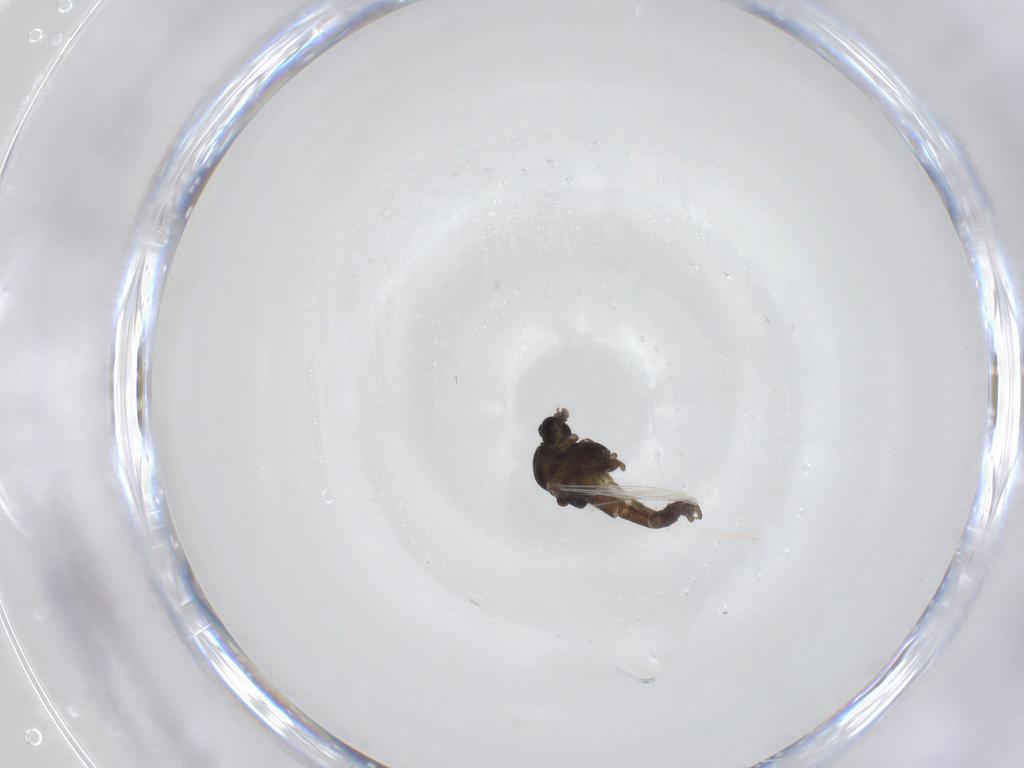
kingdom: Animalia
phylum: Arthropoda
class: Insecta
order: Diptera
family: Chironomidae
